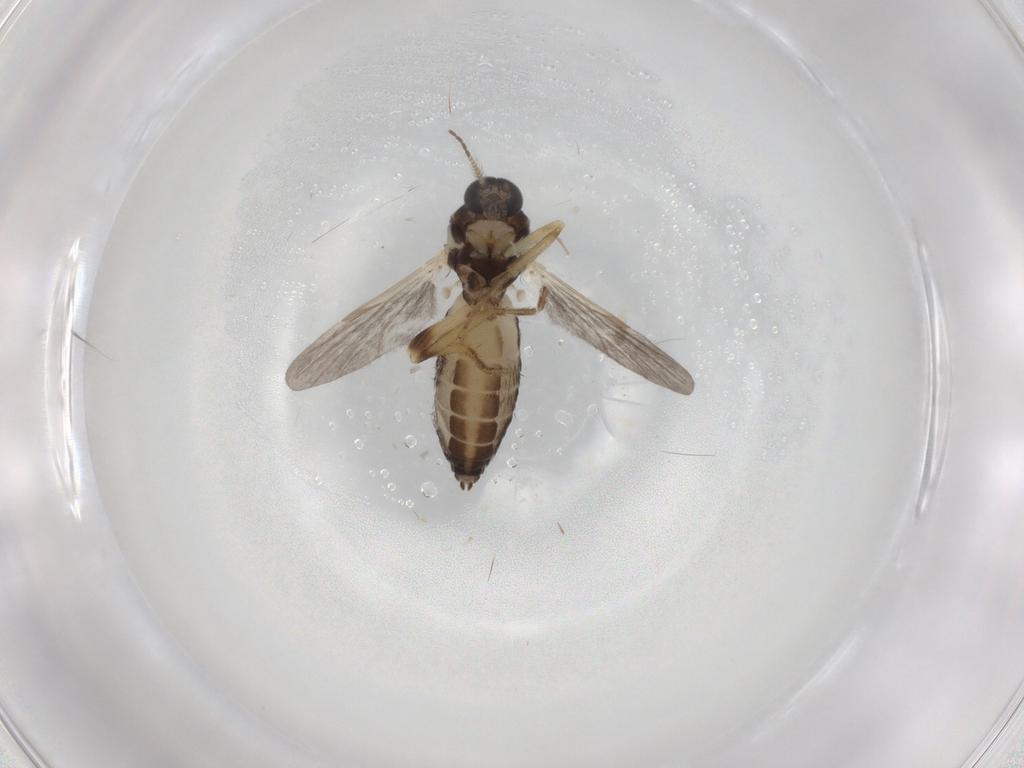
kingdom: Animalia
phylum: Arthropoda
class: Insecta
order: Diptera
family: Ceratopogonidae
